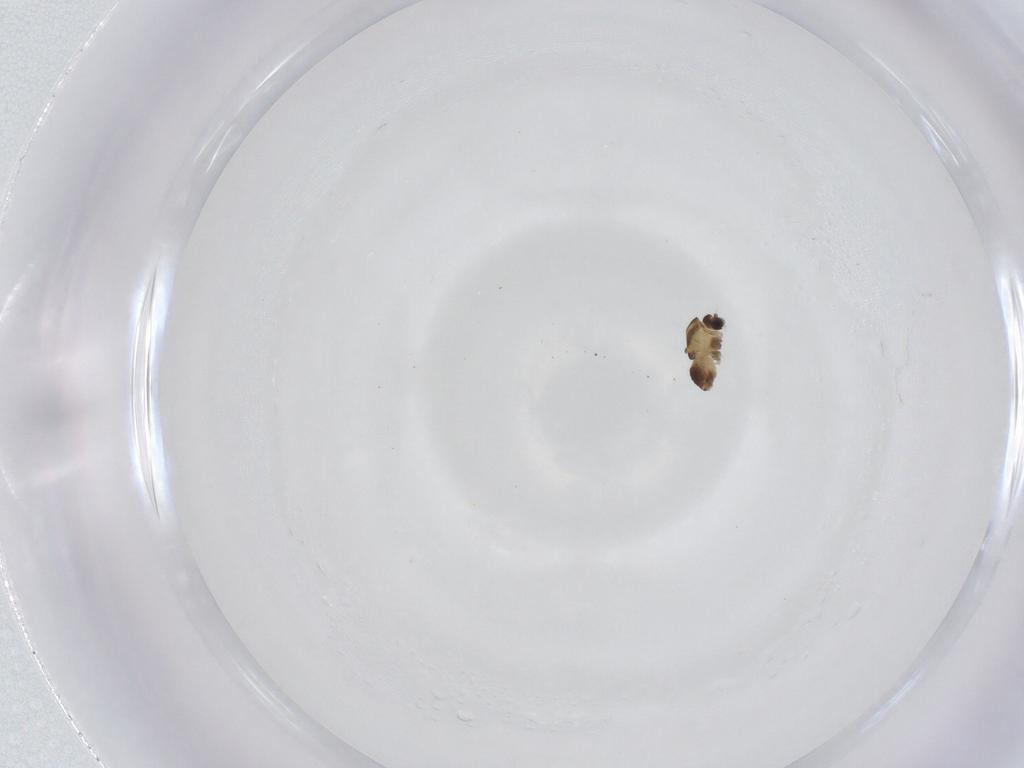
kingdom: Animalia
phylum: Arthropoda
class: Insecta
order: Diptera
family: Chironomidae
